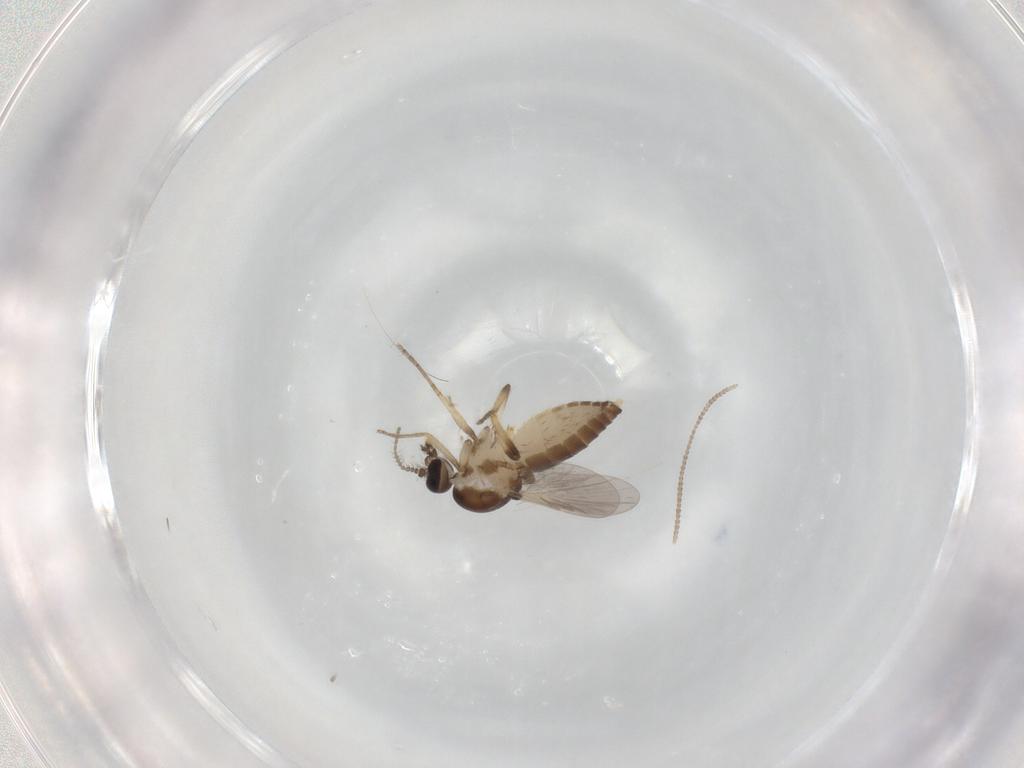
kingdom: Animalia
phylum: Arthropoda
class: Insecta
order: Diptera
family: Ceratopogonidae
